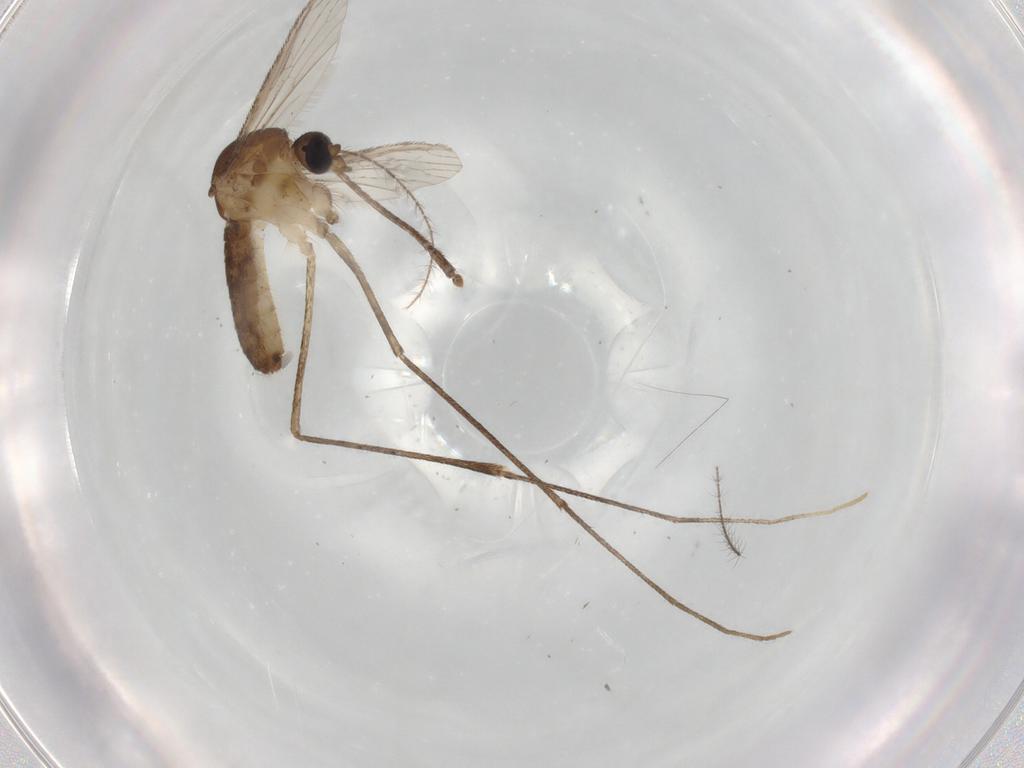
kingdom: Animalia
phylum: Arthropoda
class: Insecta
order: Diptera
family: Culicidae
